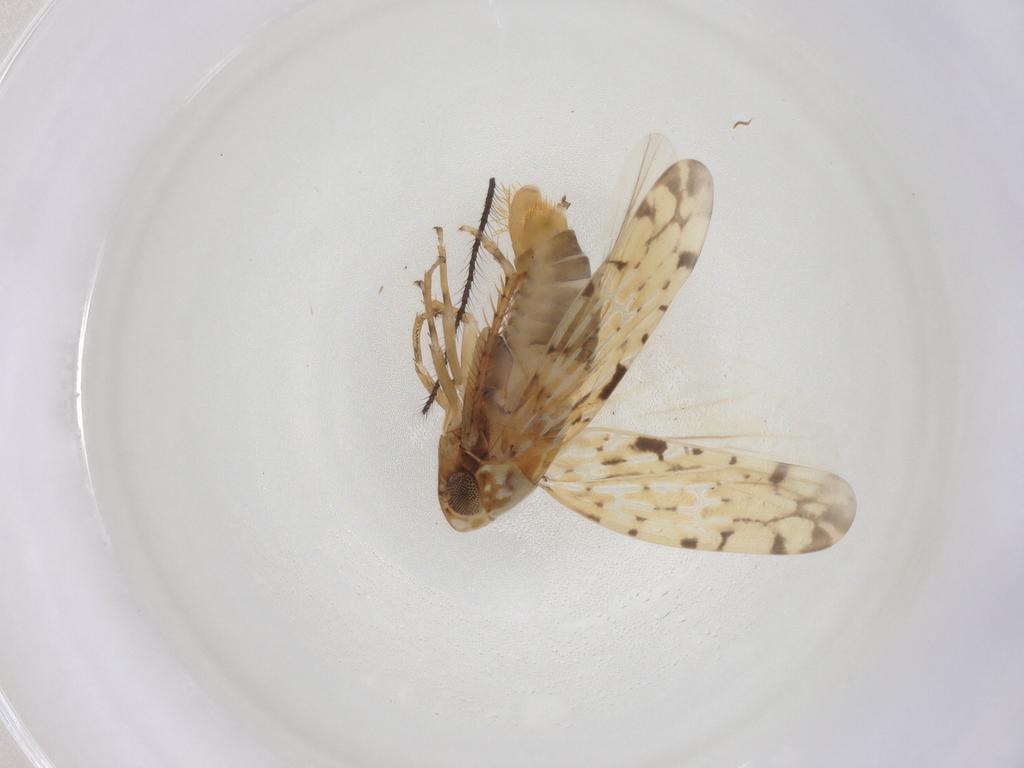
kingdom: Animalia
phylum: Arthropoda
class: Insecta
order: Hemiptera
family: Cicadellidae
